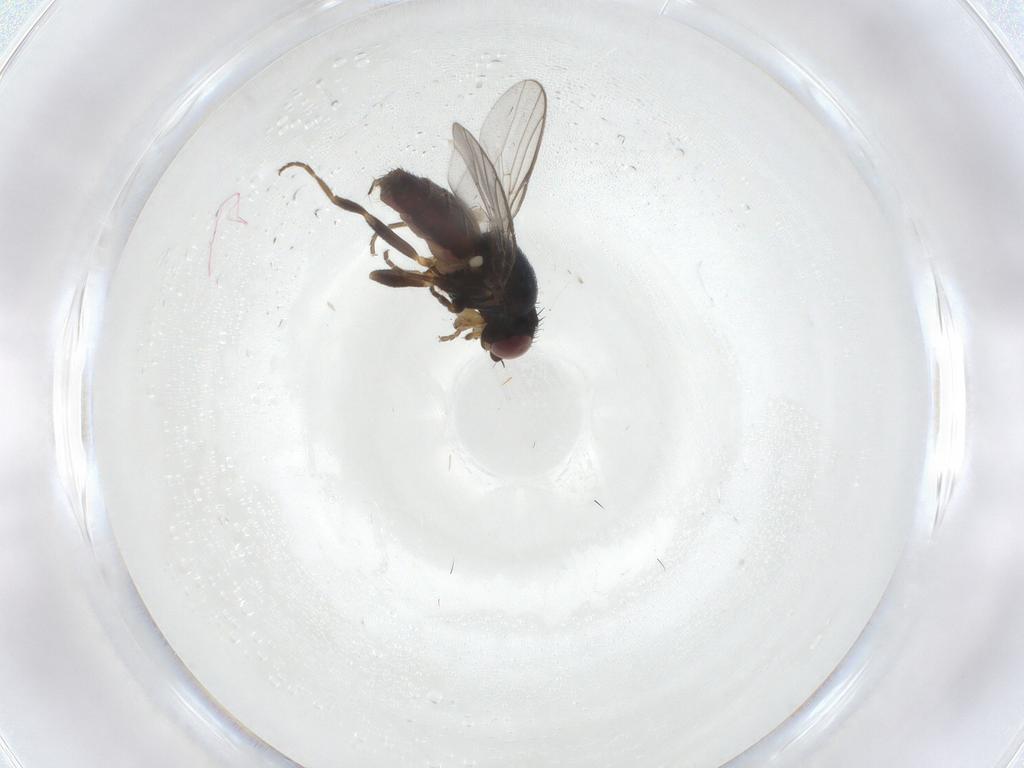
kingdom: Animalia
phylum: Arthropoda
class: Insecta
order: Diptera
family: Chloropidae
